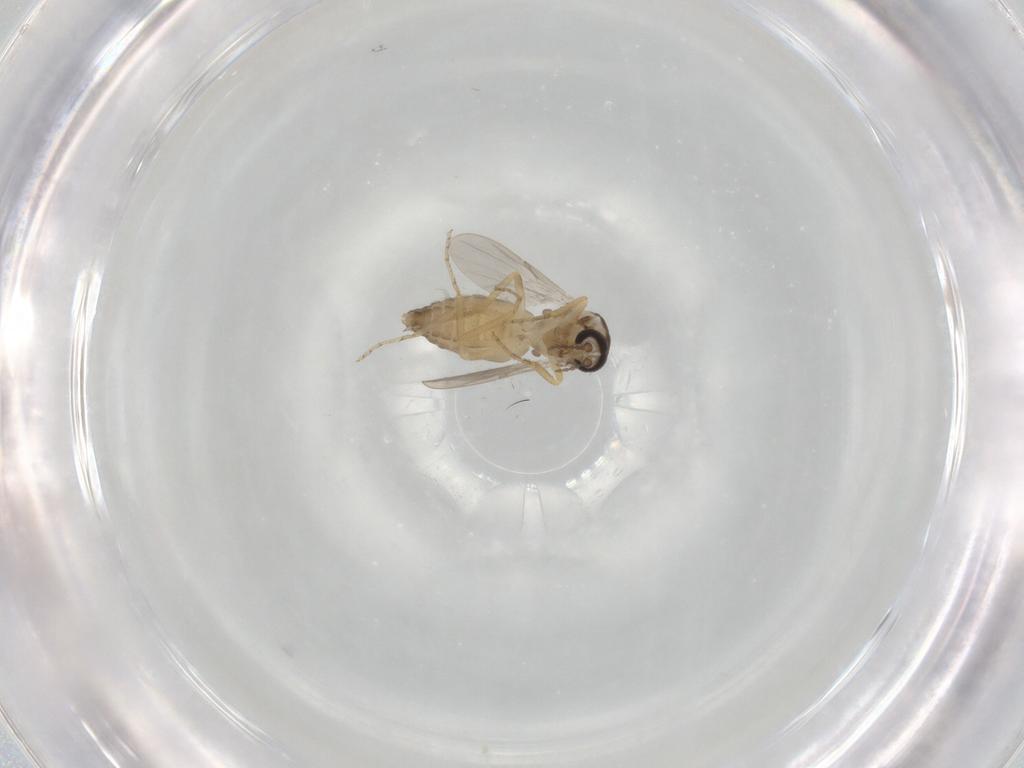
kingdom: Animalia
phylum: Arthropoda
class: Insecta
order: Diptera
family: Ceratopogonidae
